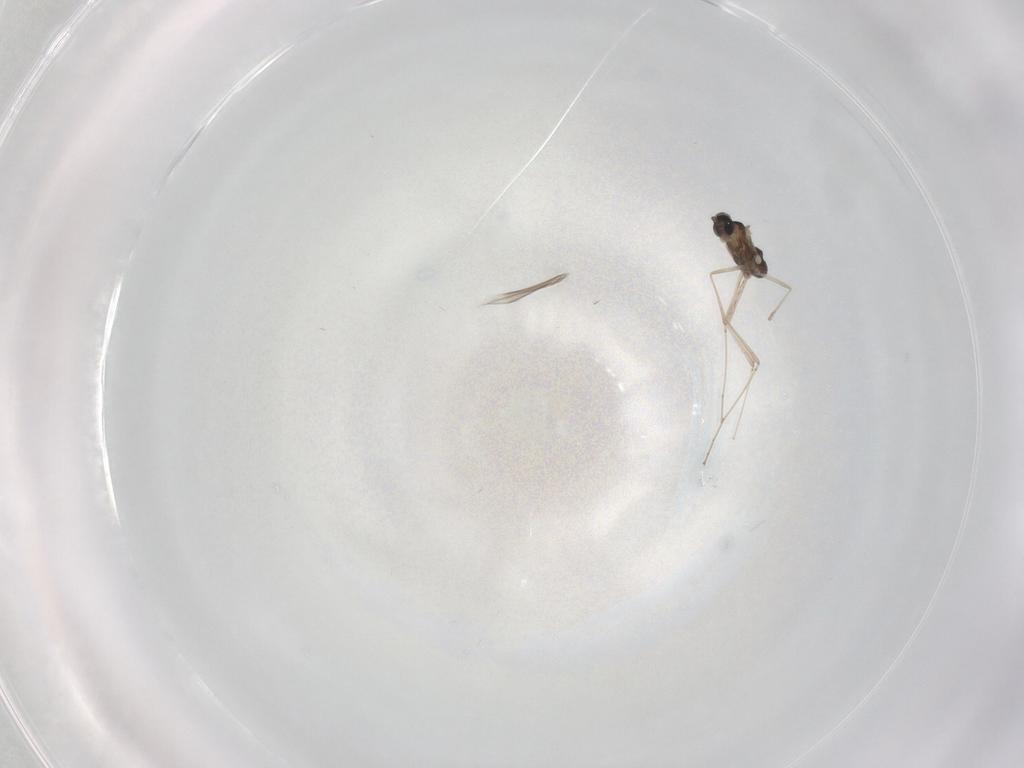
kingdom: Animalia
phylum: Arthropoda
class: Insecta
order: Diptera
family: Cecidomyiidae
